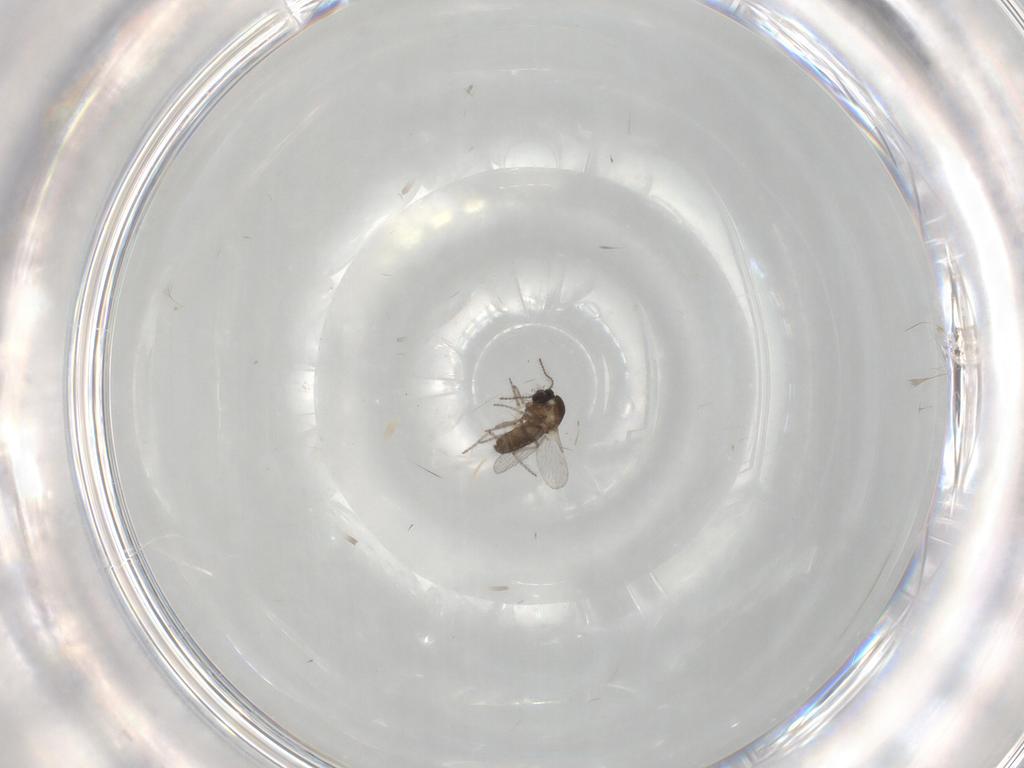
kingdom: Animalia
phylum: Arthropoda
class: Insecta
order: Diptera
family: Ceratopogonidae
